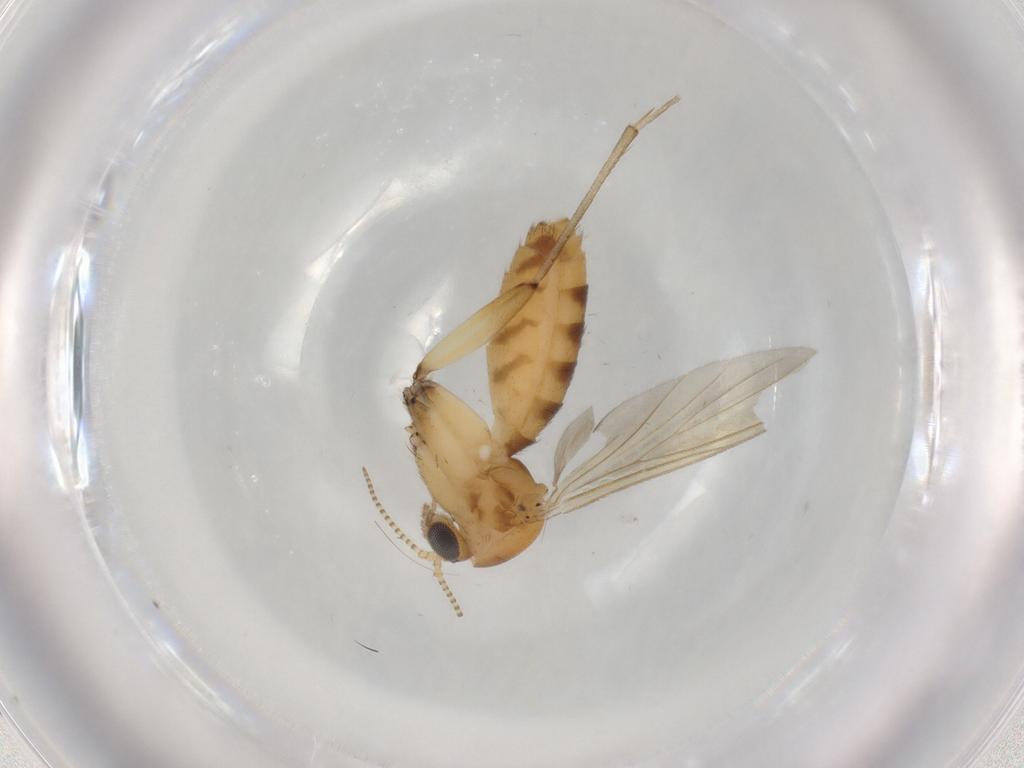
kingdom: Animalia
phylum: Arthropoda
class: Insecta
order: Diptera
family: Mycetophilidae
